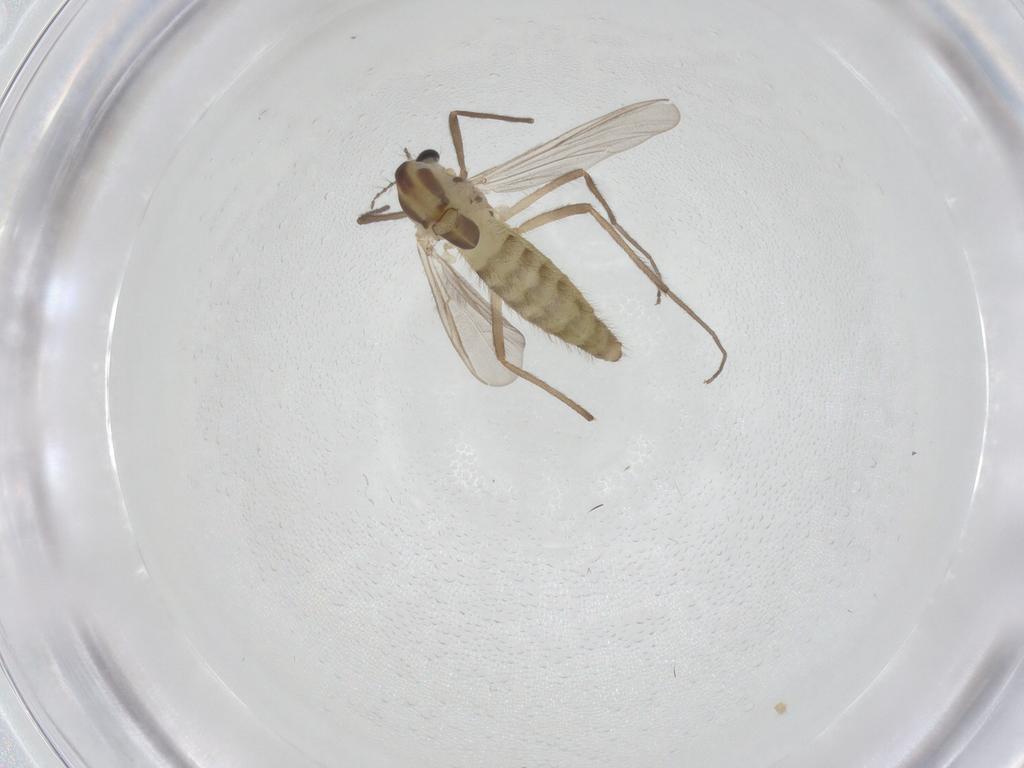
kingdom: Animalia
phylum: Arthropoda
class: Insecta
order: Diptera
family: Chironomidae
